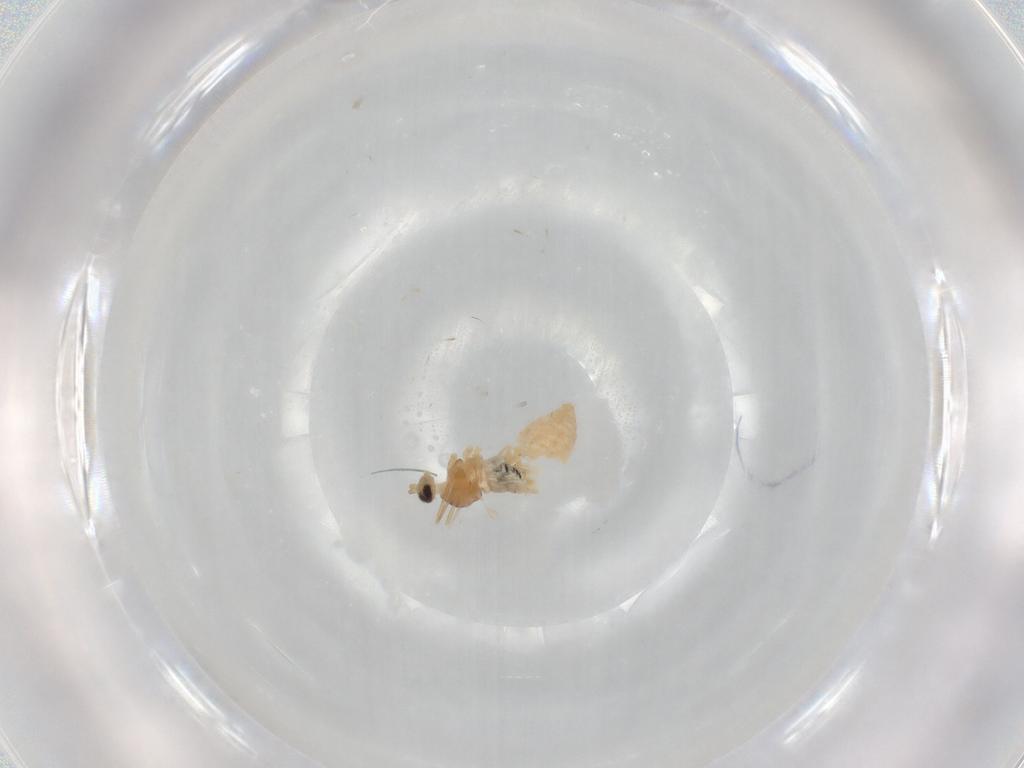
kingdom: Animalia
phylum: Arthropoda
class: Insecta
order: Diptera
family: Cecidomyiidae
